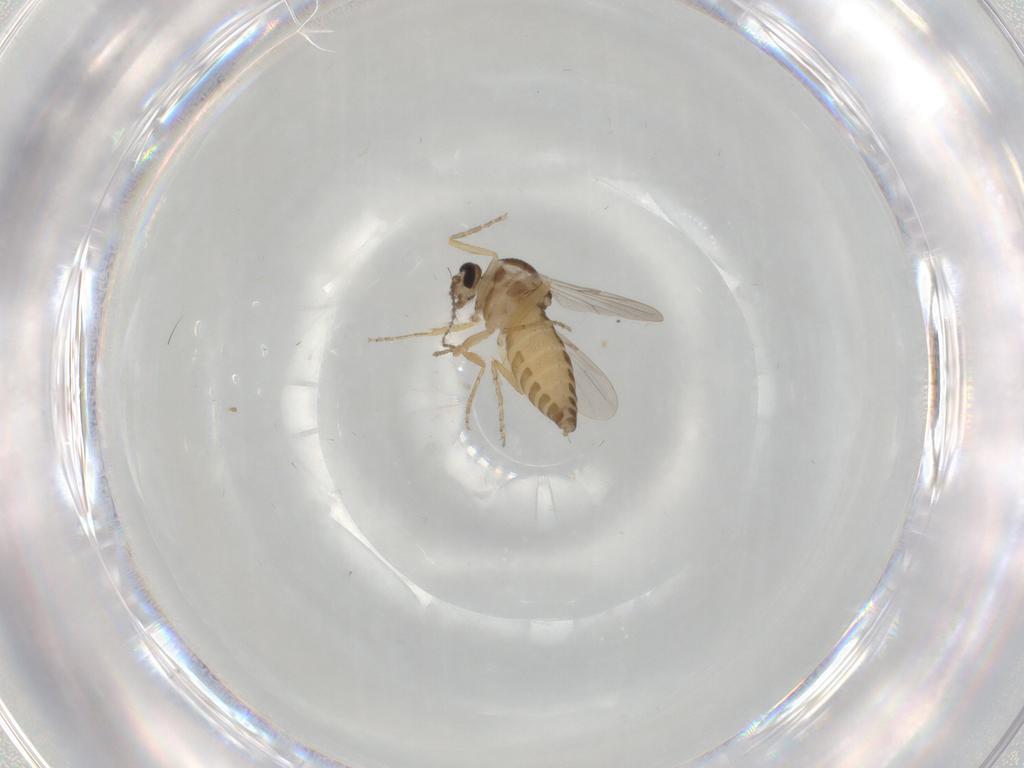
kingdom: Animalia
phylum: Arthropoda
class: Insecta
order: Diptera
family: Ceratopogonidae
